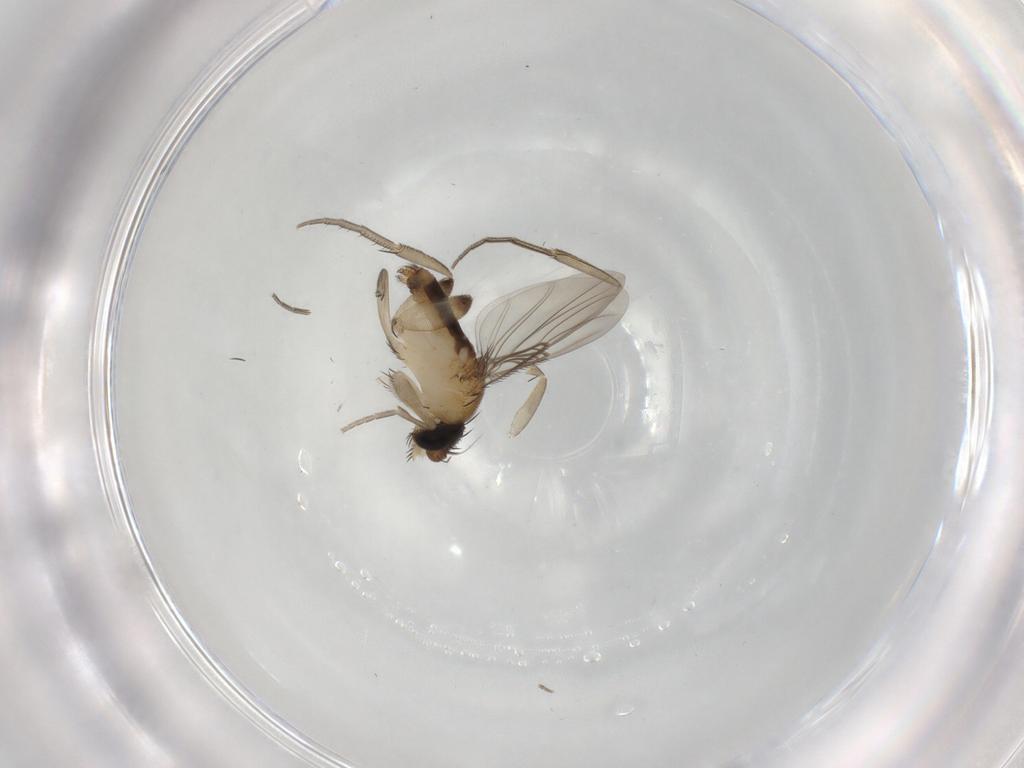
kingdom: Animalia
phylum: Arthropoda
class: Insecta
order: Diptera
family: Phoridae
